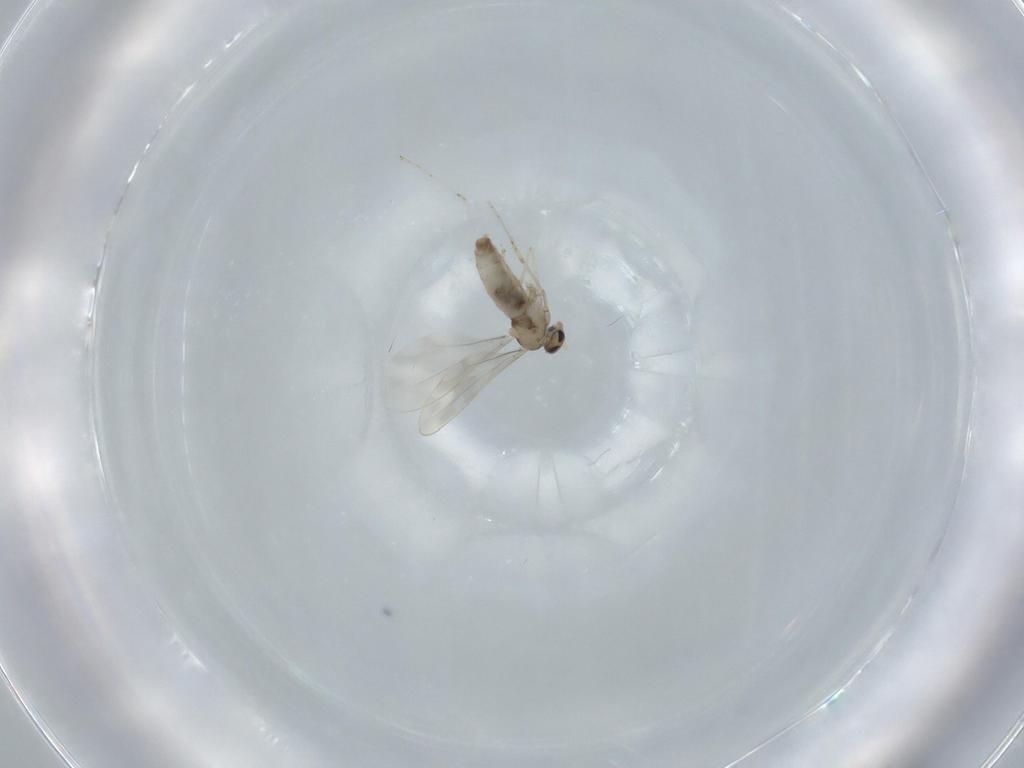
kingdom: Animalia
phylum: Arthropoda
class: Insecta
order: Diptera
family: Cecidomyiidae
